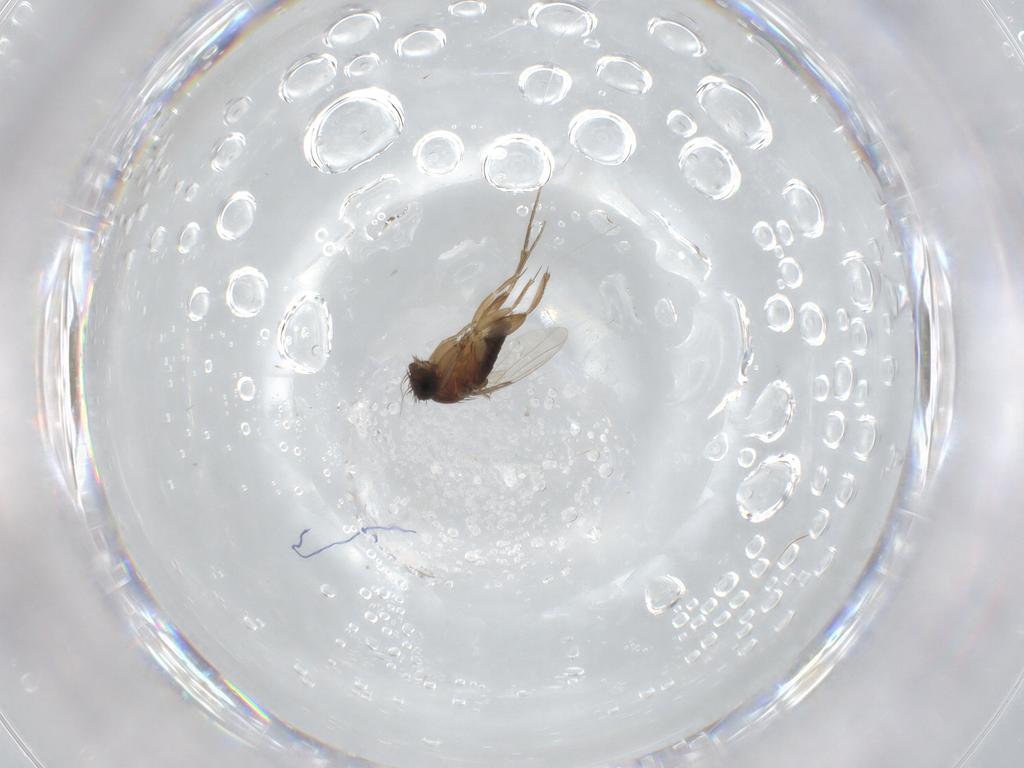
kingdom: Animalia
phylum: Arthropoda
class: Insecta
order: Diptera
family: Phoridae
